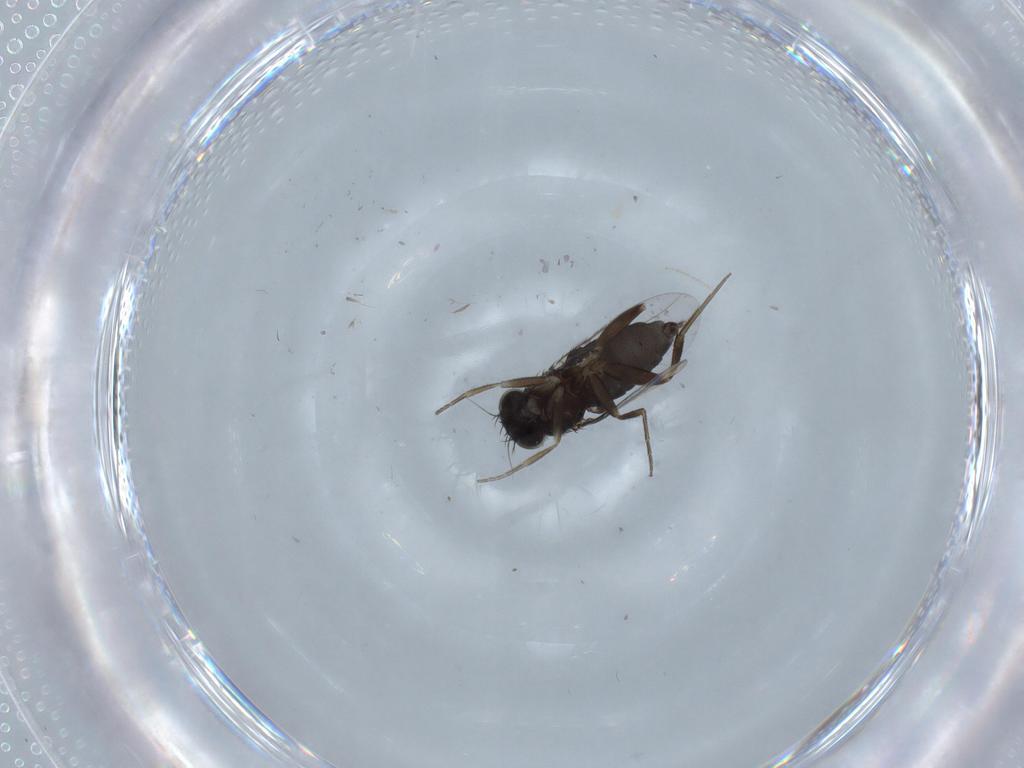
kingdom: Animalia
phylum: Arthropoda
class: Insecta
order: Diptera
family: Phoridae
